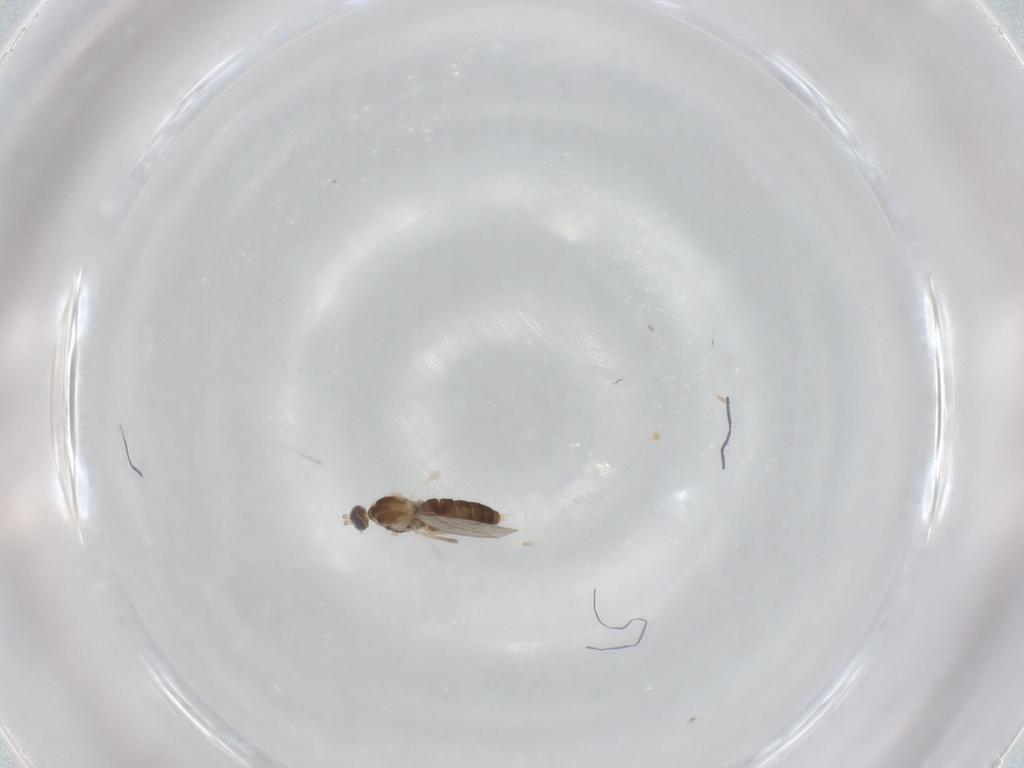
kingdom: Animalia
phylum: Arthropoda
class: Insecta
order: Diptera
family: Cecidomyiidae
